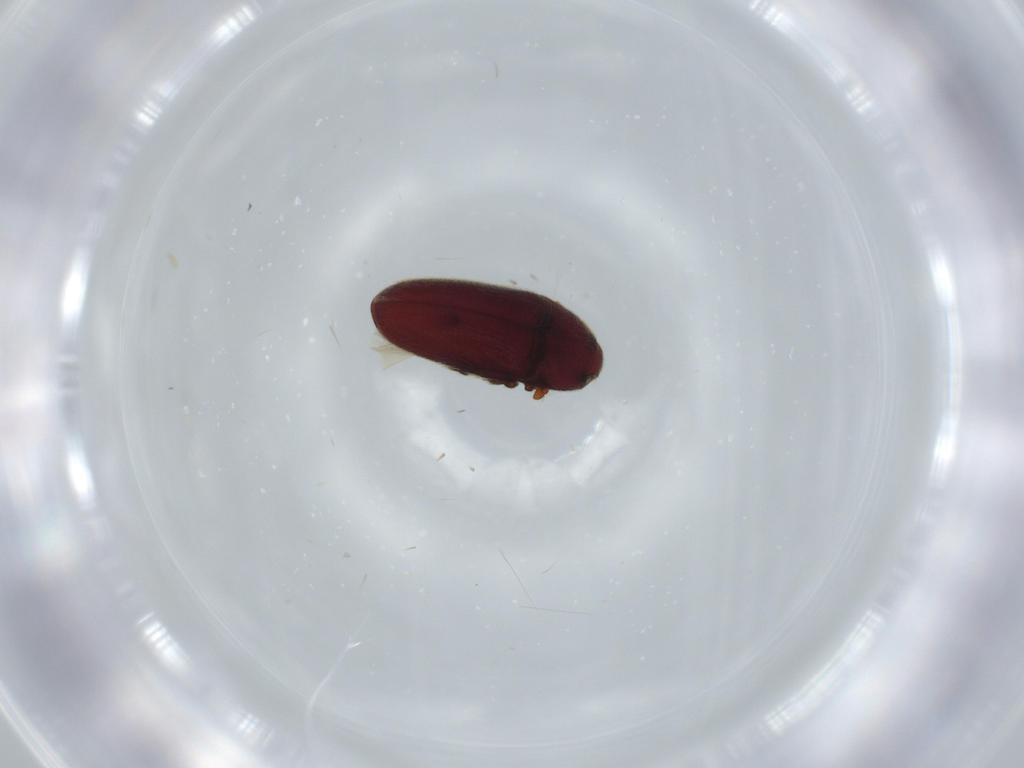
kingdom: Animalia
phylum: Arthropoda
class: Insecta
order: Coleoptera
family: Throscidae
